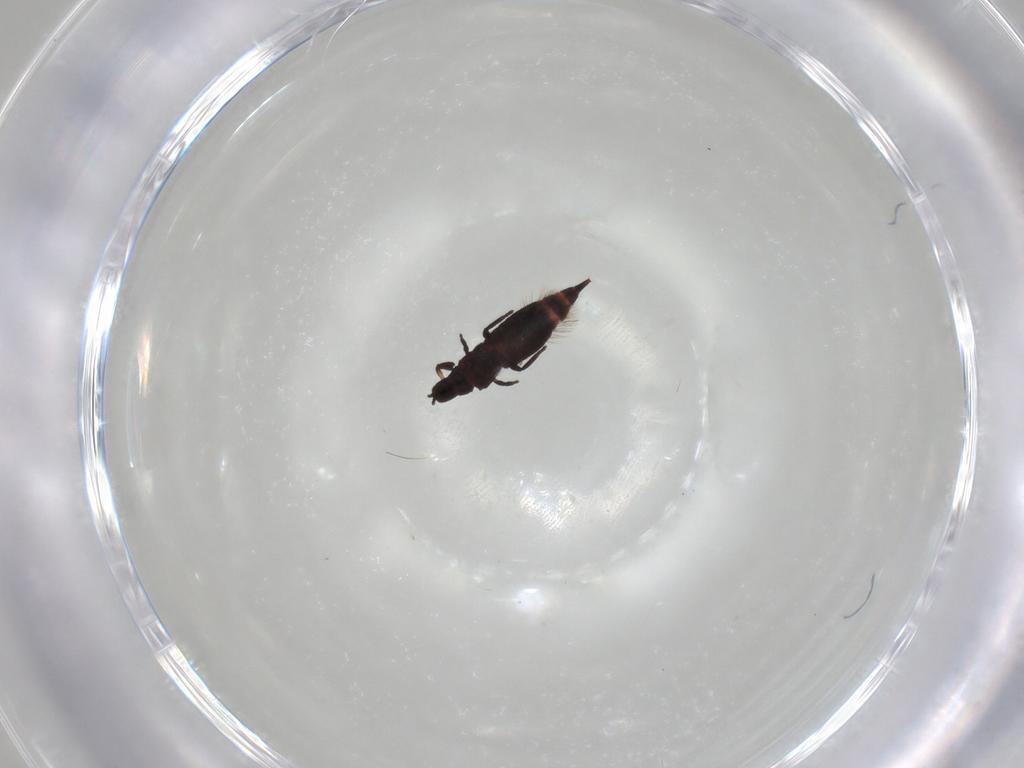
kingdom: Animalia
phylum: Arthropoda
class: Insecta
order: Thysanoptera
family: Phlaeothripidae
